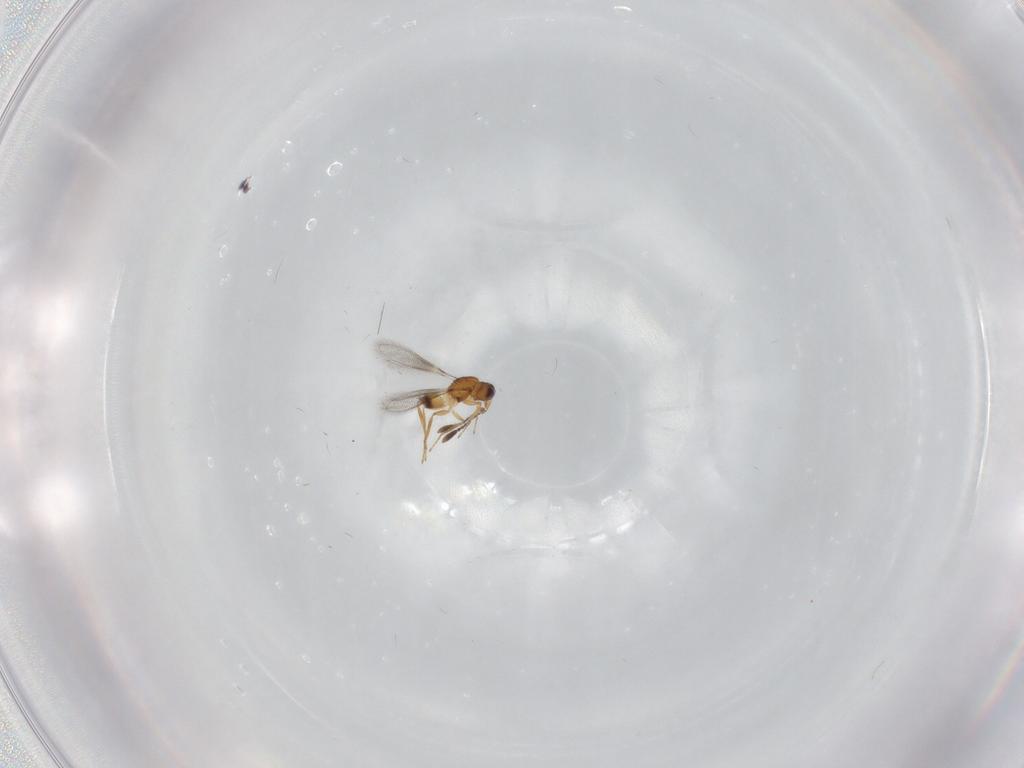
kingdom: Animalia
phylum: Arthropoda
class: Insecta
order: Hymenoptera
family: Mymaridae
